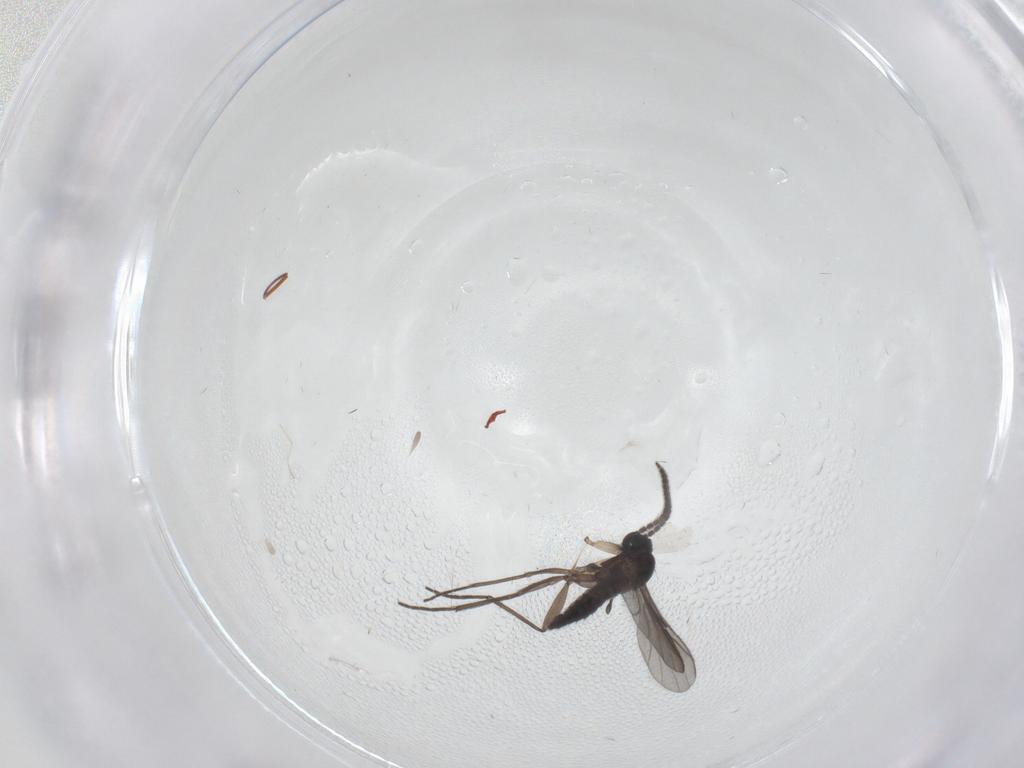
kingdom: Animalia
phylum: Arthropoda
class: Insecta
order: Diptera
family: Sciaridae
